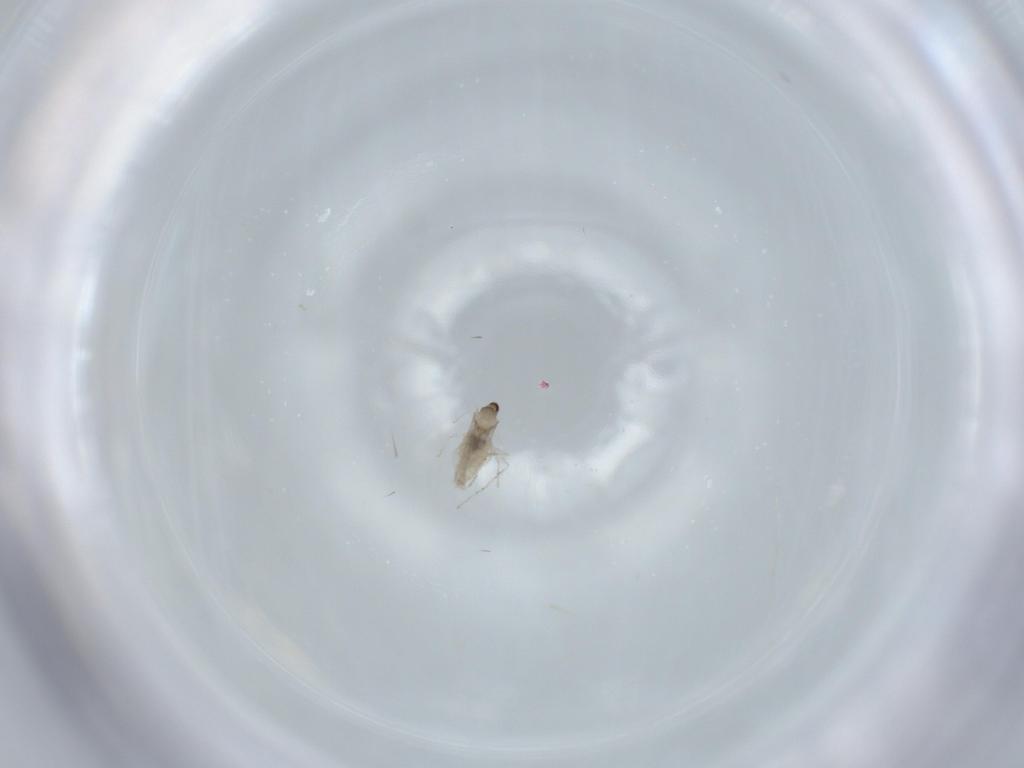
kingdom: Animalia
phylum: Arthropoda
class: Insecta
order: Diptera
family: Cecidomyiidae
